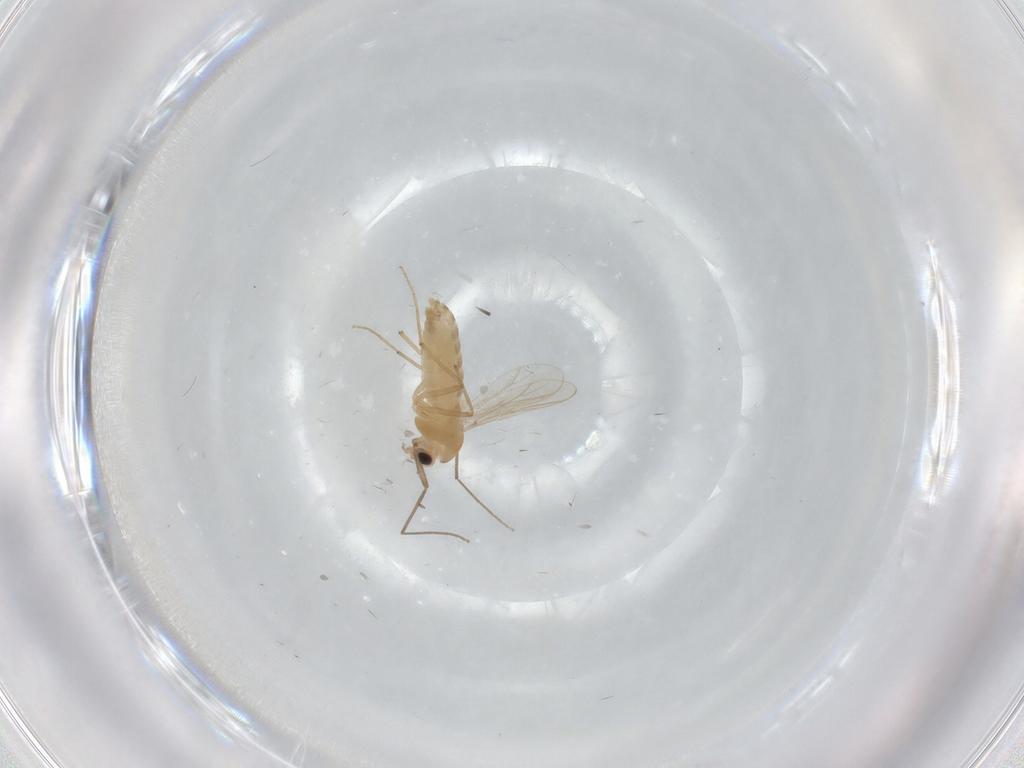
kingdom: Animalia
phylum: Arthropoda
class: Insecta
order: Diptera
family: Chironomidae
